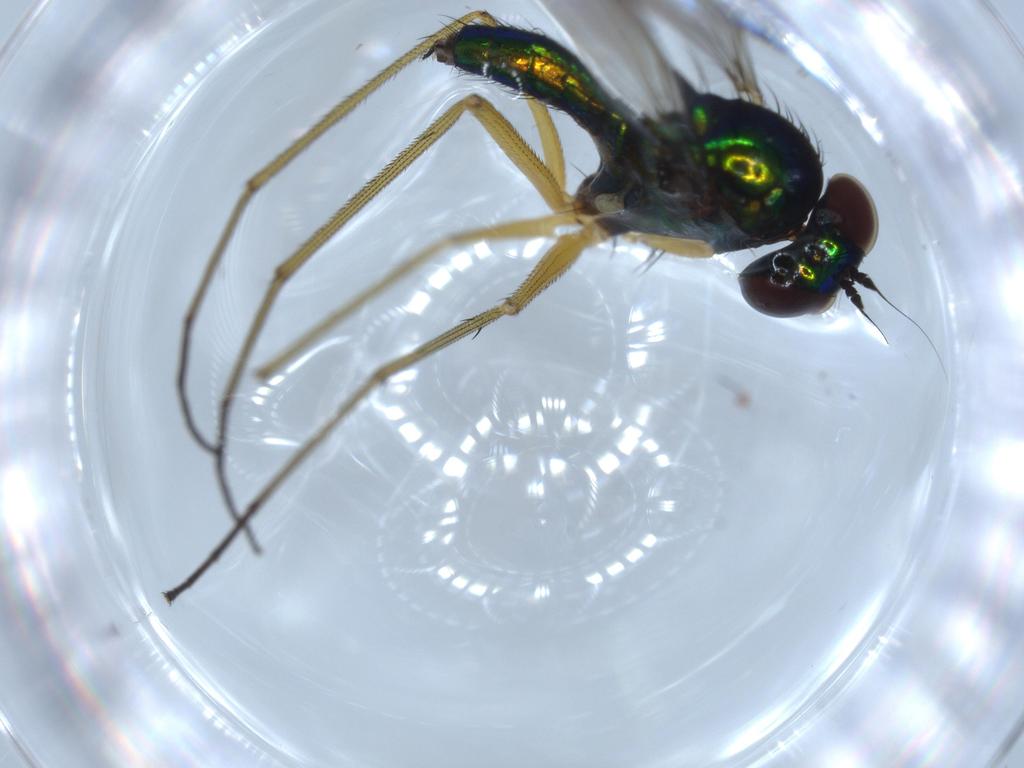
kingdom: Animalia
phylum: Arthropoda
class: Insecta
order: Diptera
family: Dolichopodidae
